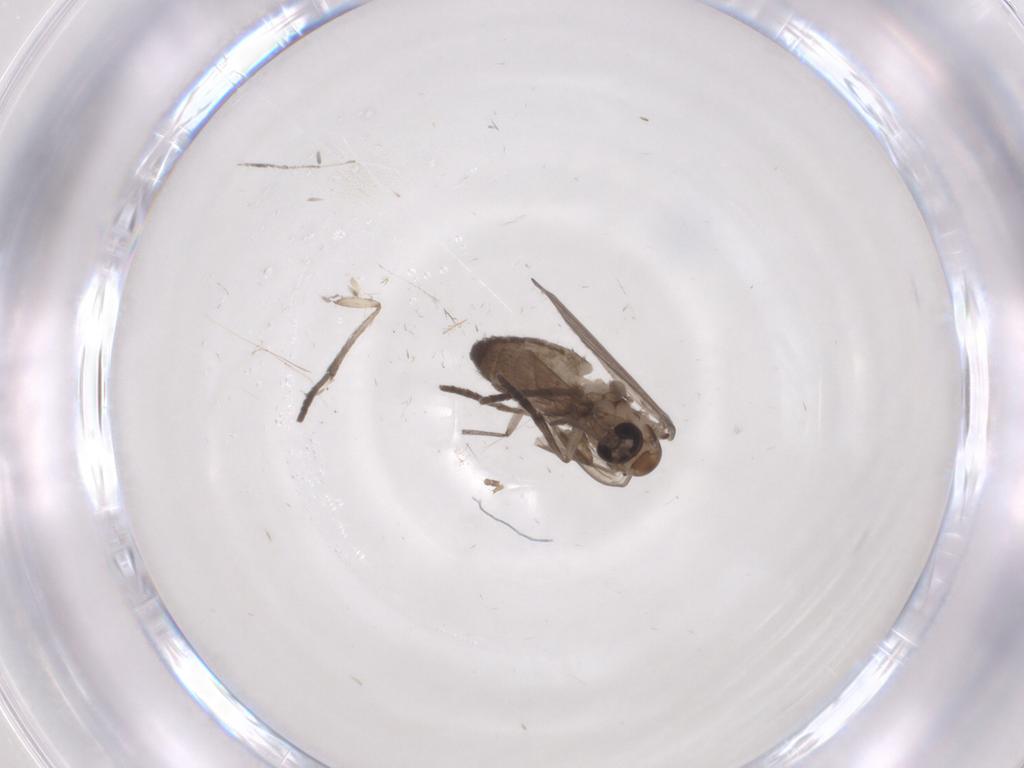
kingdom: Animalia
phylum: Arthropoda
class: Insecta
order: Diptera
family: Psychodidae
